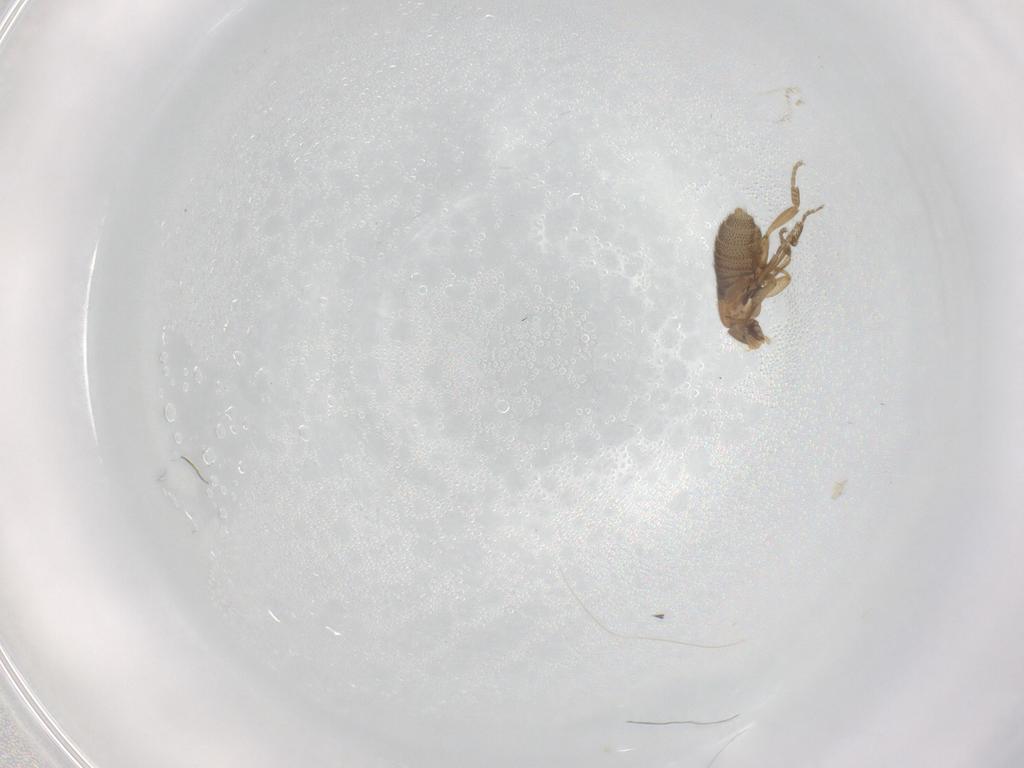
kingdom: Animalia
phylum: Arthropoda
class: Insecta
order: Diptera
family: Phoridae
